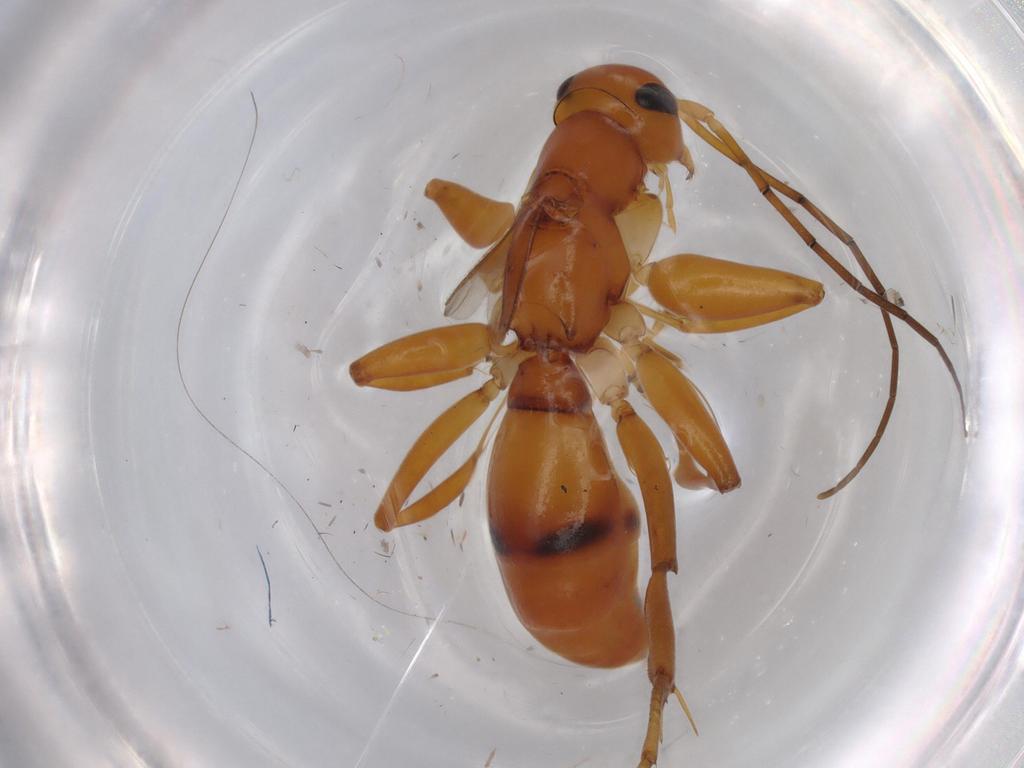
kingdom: Animalia
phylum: Arthropoda
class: Insecta
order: Hymenoptera
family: Rhopalosomatidae
